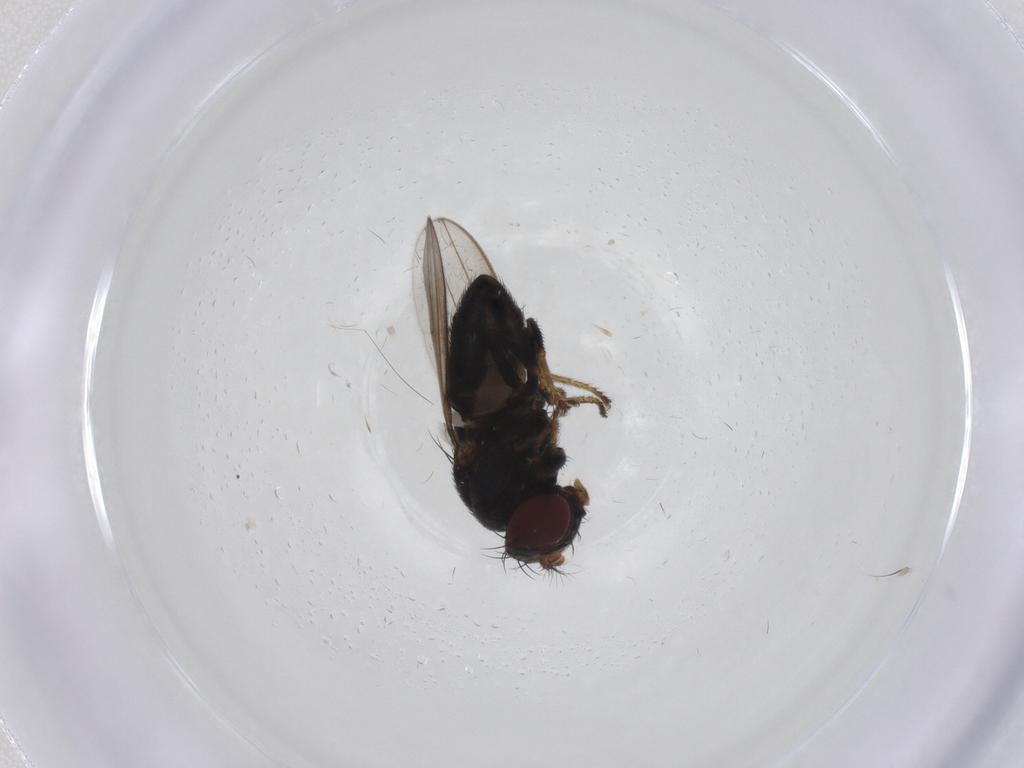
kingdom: Animalia
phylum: Arthropoda
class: Insecta
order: Diptera
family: Ephydridae
